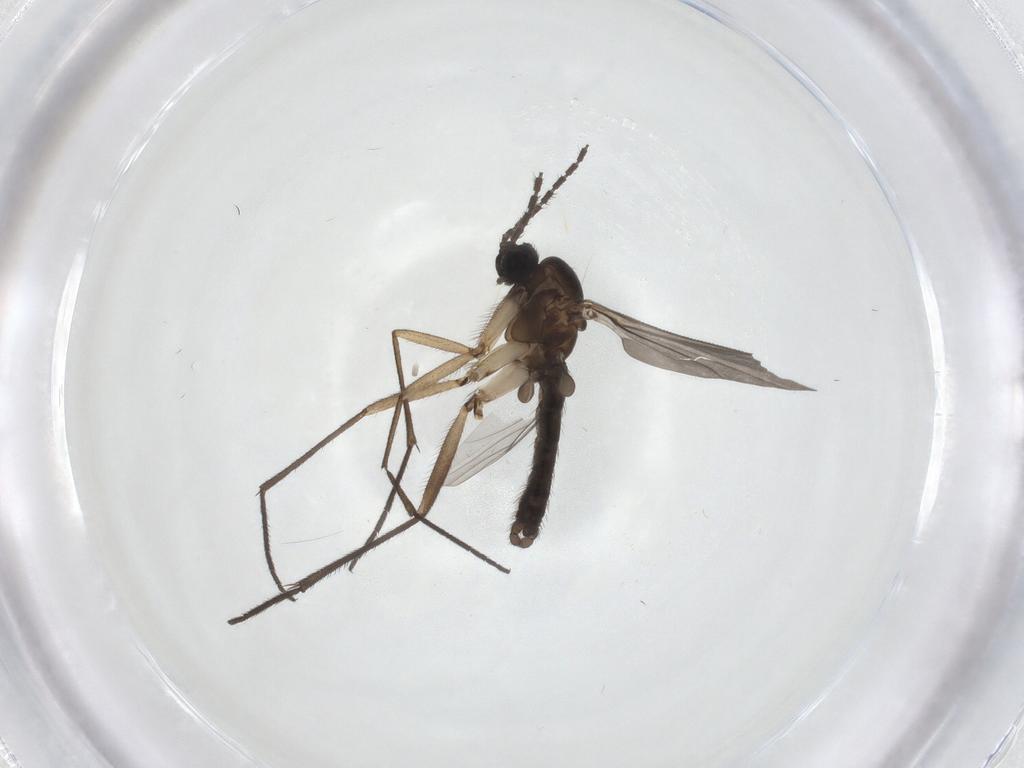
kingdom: Animalia
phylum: Arthropoda
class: Insecta
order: Diptera
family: Sciaridae
